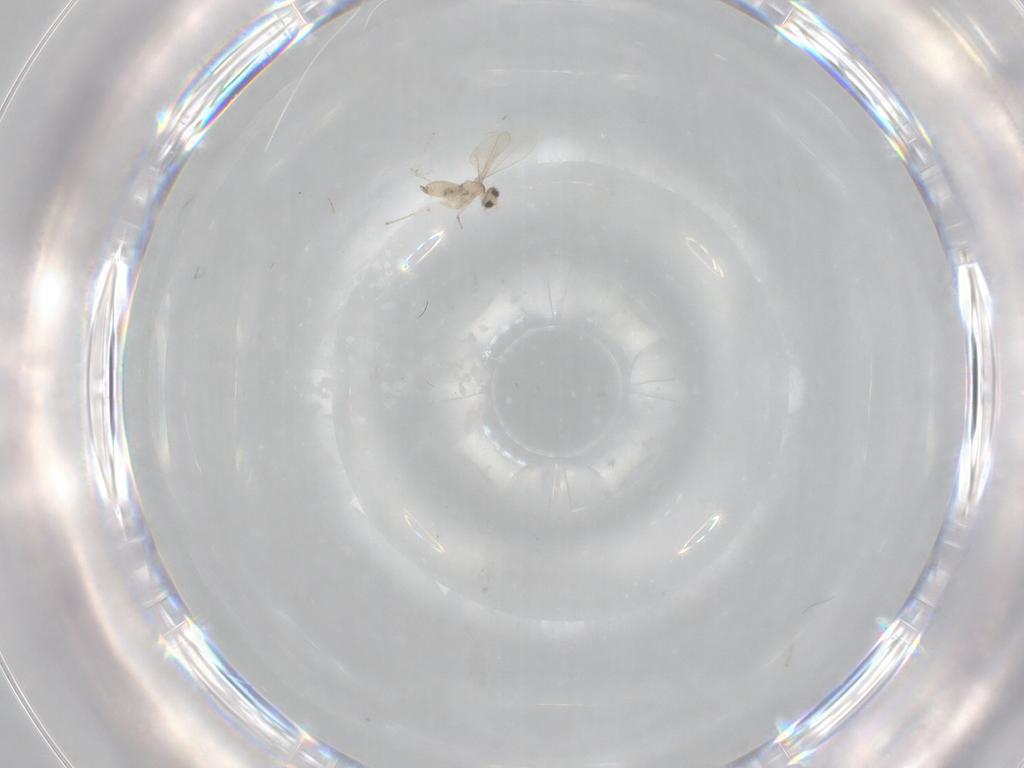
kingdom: Animalia
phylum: Arthropoda
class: Insecta
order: Diptera
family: Cecidomyiidae
